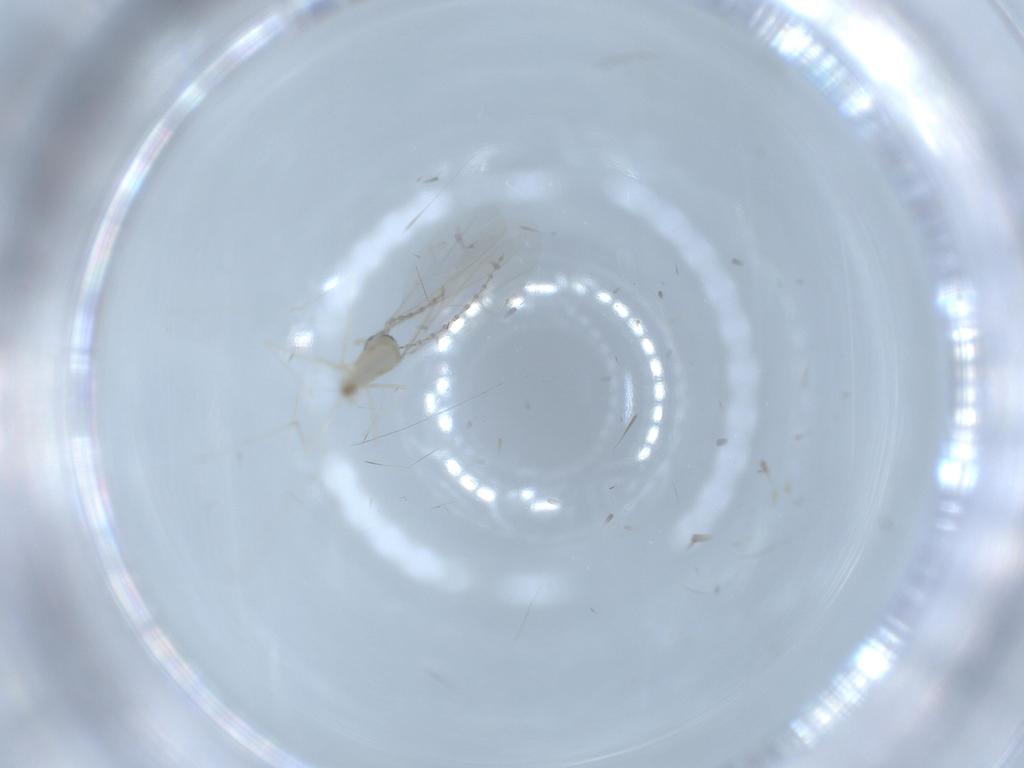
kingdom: Animalia
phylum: Arthropoda
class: Insecta
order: Diptera
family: Cecidomyiidae
